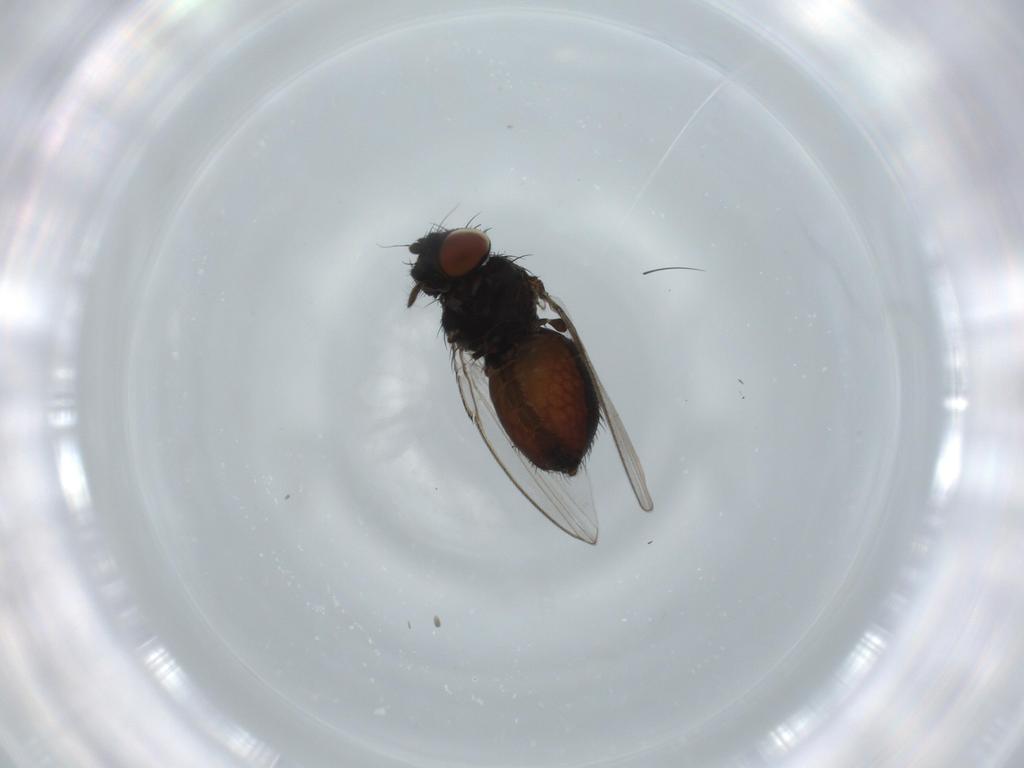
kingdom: Animalia
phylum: Arthropoda
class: Insecta
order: Diptera
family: Milichiidae
